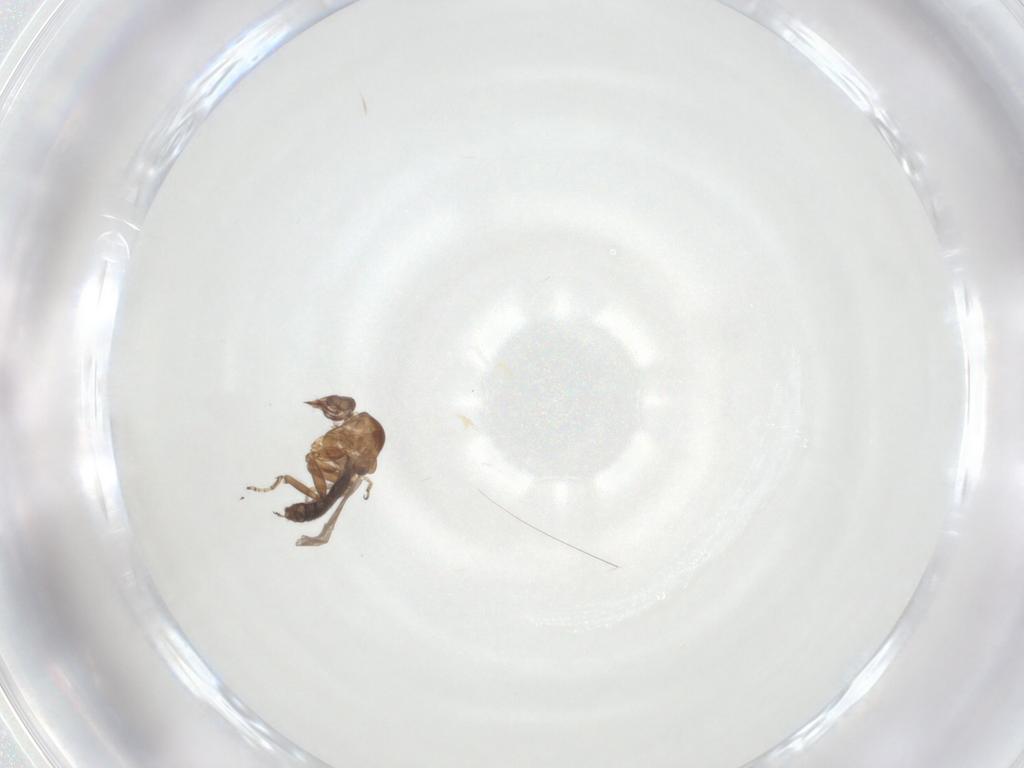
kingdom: Animalia
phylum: Arthropoda
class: Insecta
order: Diptera
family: Ceratopogonidae
